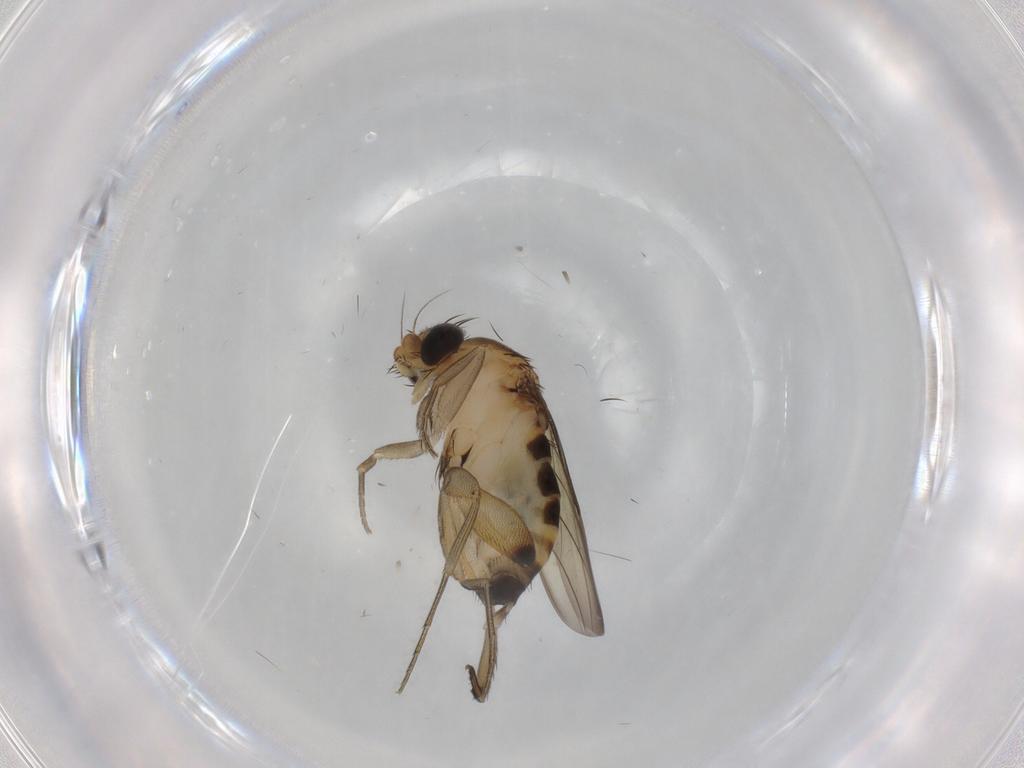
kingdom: Animalia
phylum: Arthropoda
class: Insecta
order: Diptera
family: Phoridae
